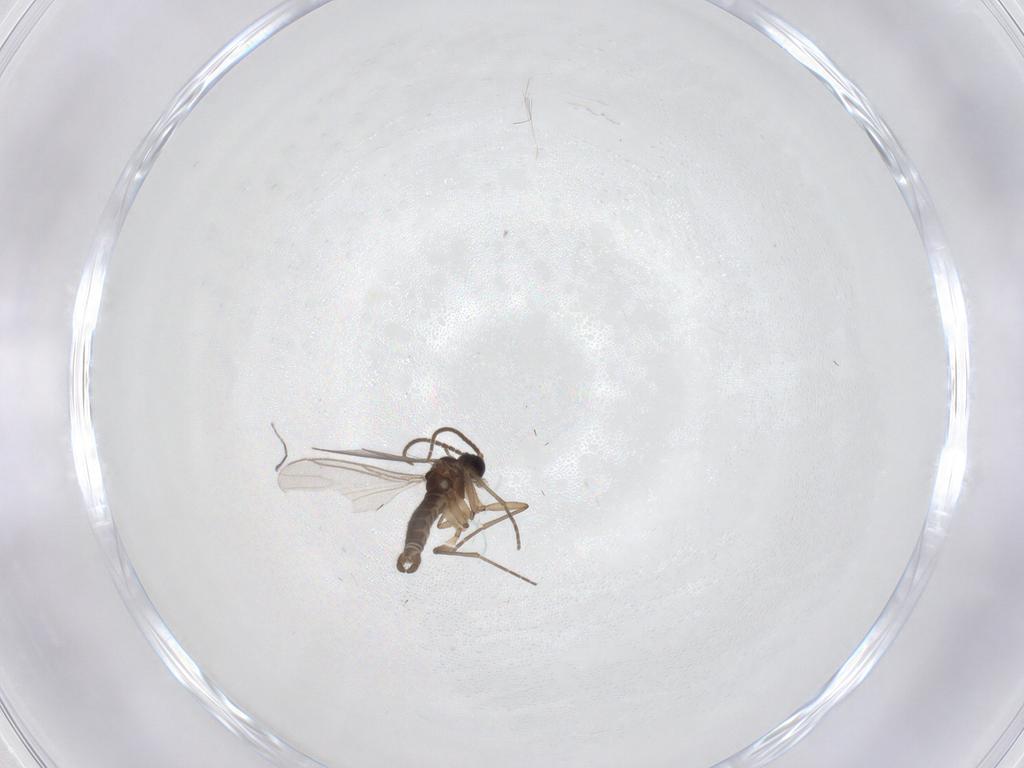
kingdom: Animalia
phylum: Arthropoda
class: Insecta
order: Diptera
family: Sciaridae
